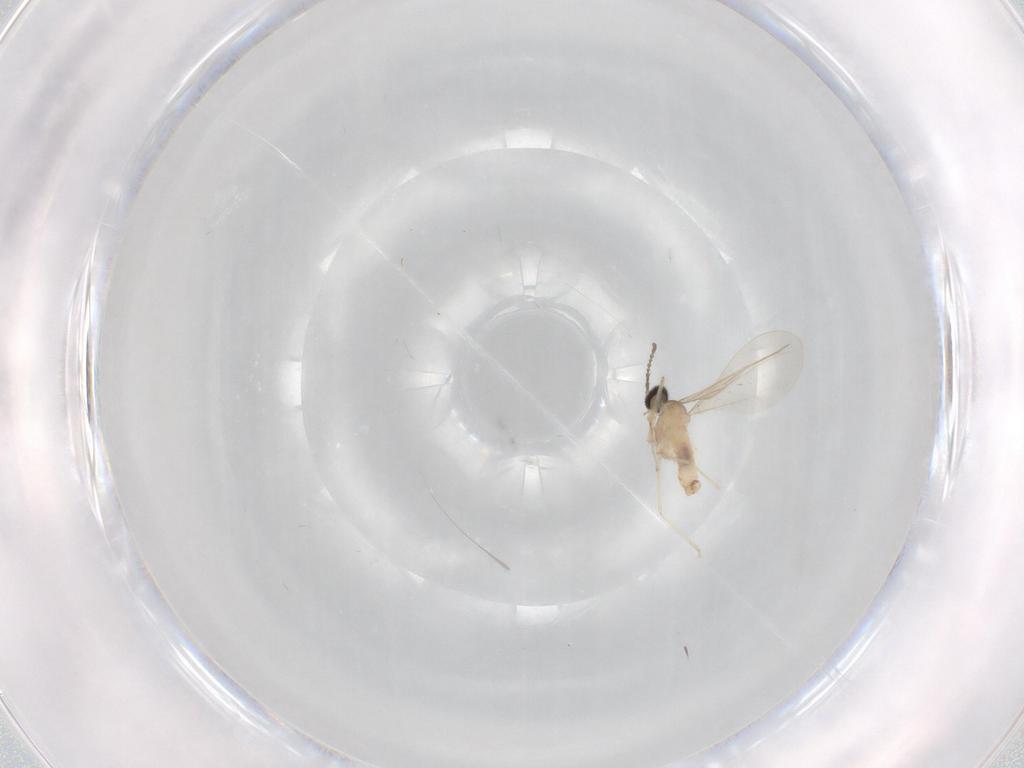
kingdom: Animalia
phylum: Arthropoda
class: Insecta
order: Diptera
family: Cecidomyiidae
